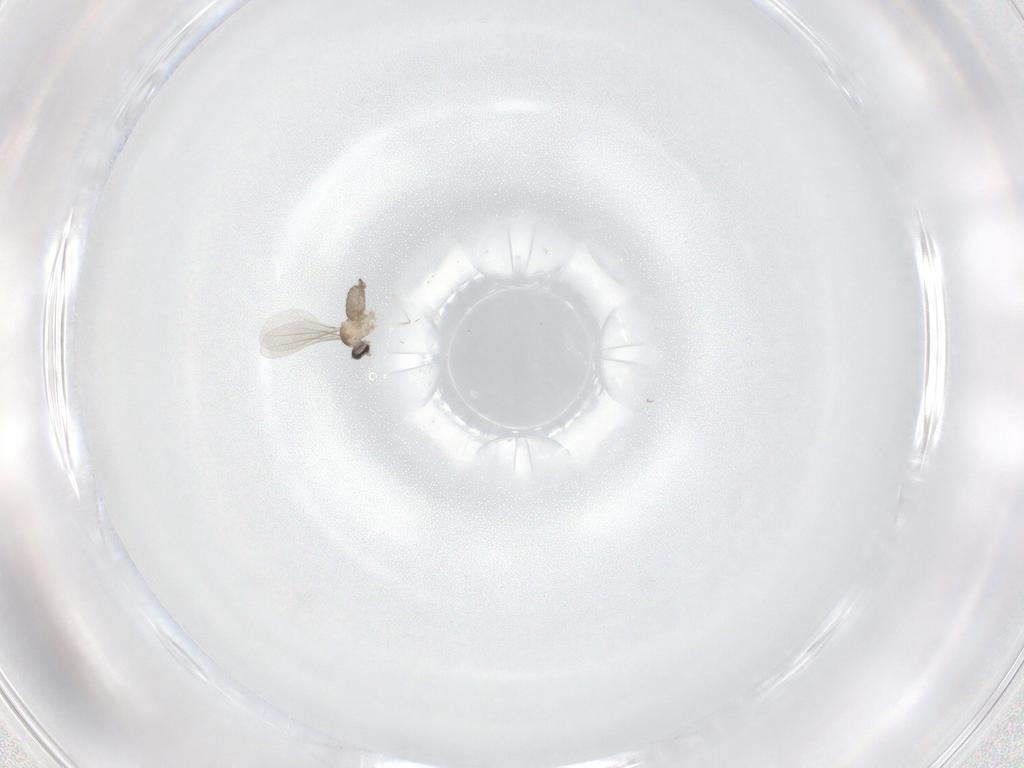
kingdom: Animalia
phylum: Arthropoda
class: Insecta
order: Diptera
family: Cecidomyiidae
